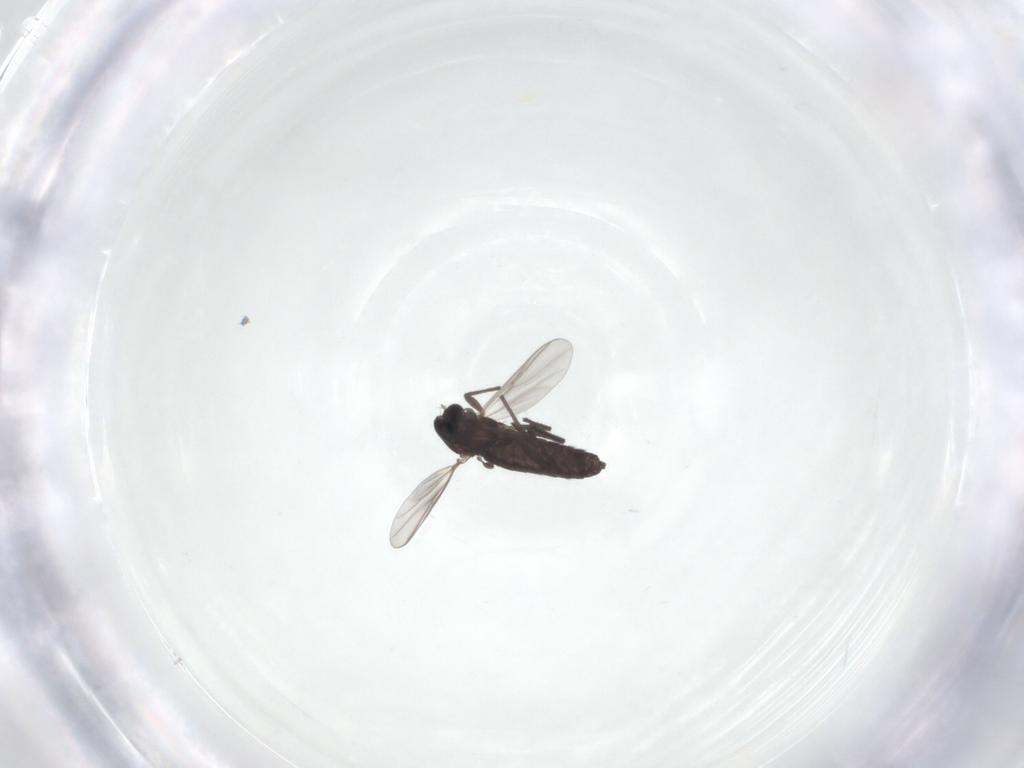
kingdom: Animalia
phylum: Arthropoda
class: Insecta
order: Diptera
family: Chironomidae
